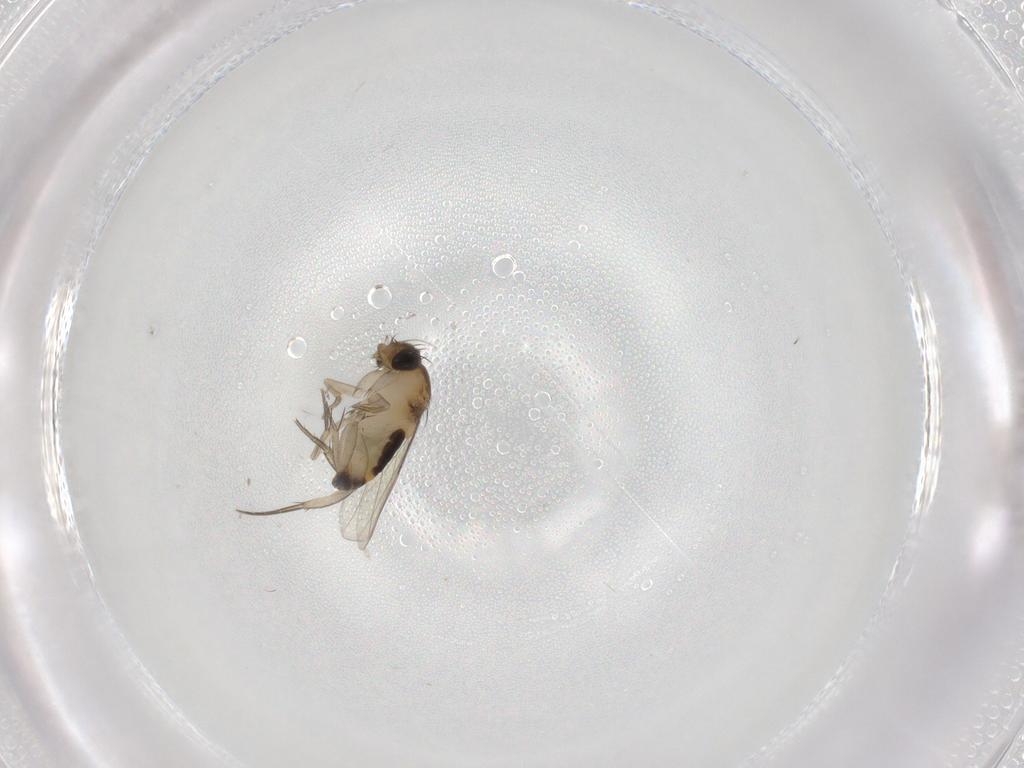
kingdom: Animalia
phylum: Arthropoda
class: Insecta
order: Diptera
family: Phoridae
